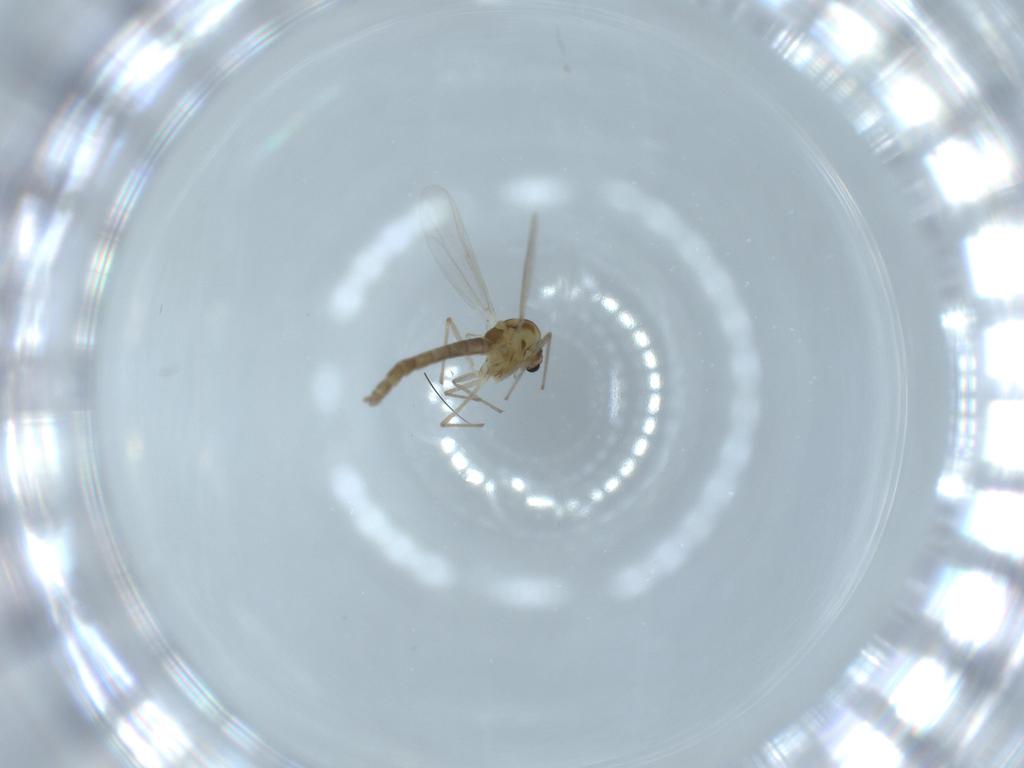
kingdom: Animalia
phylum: Arthropoda
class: Insecta
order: Diptera
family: Chironomidae
